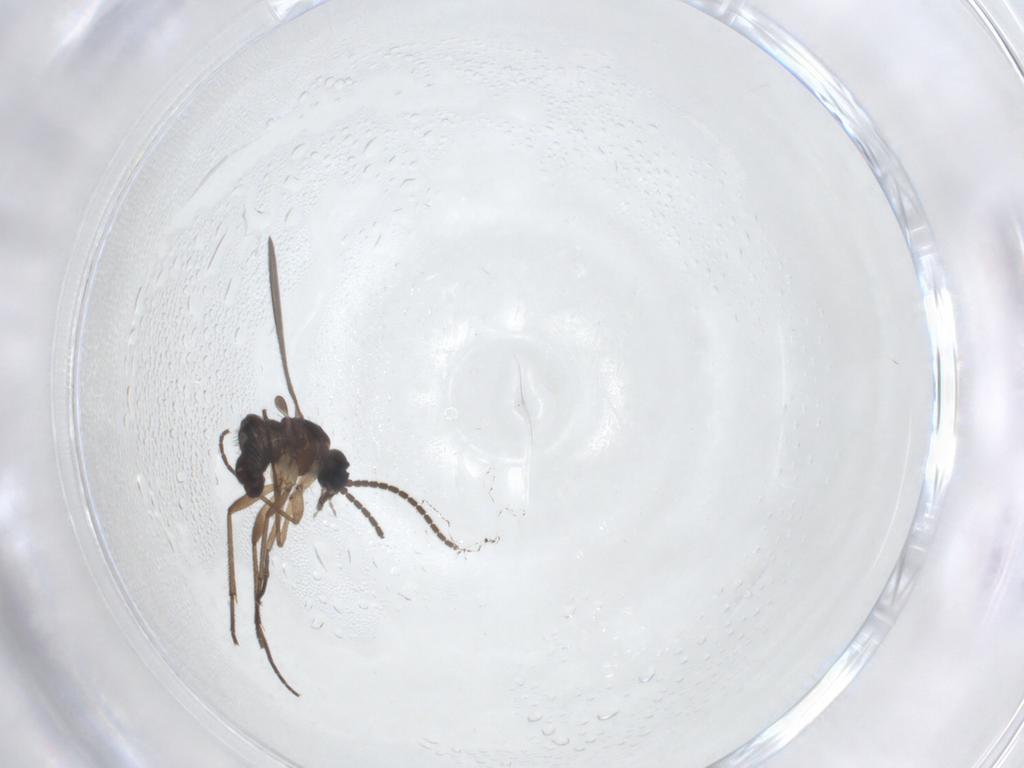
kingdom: Animalia
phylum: Arthropoda
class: Insecta
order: Diptera
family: Sciaridae
